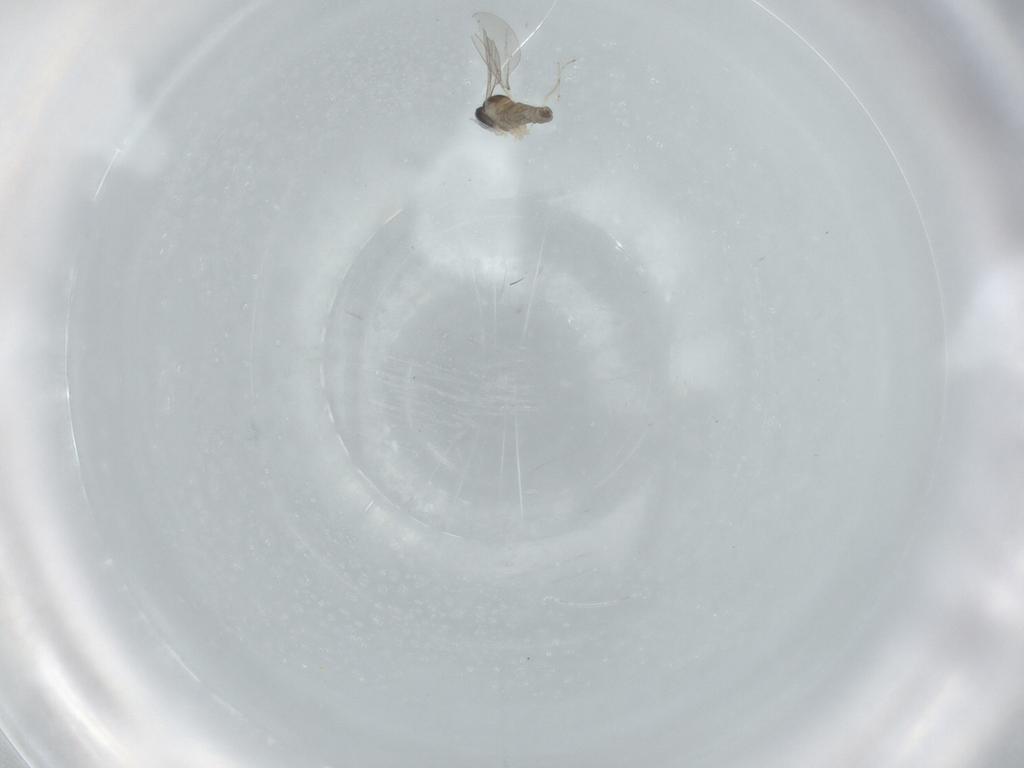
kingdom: Animalia
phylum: Arthropoda
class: Insecta
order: Diptera
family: Cecidomyiidae
